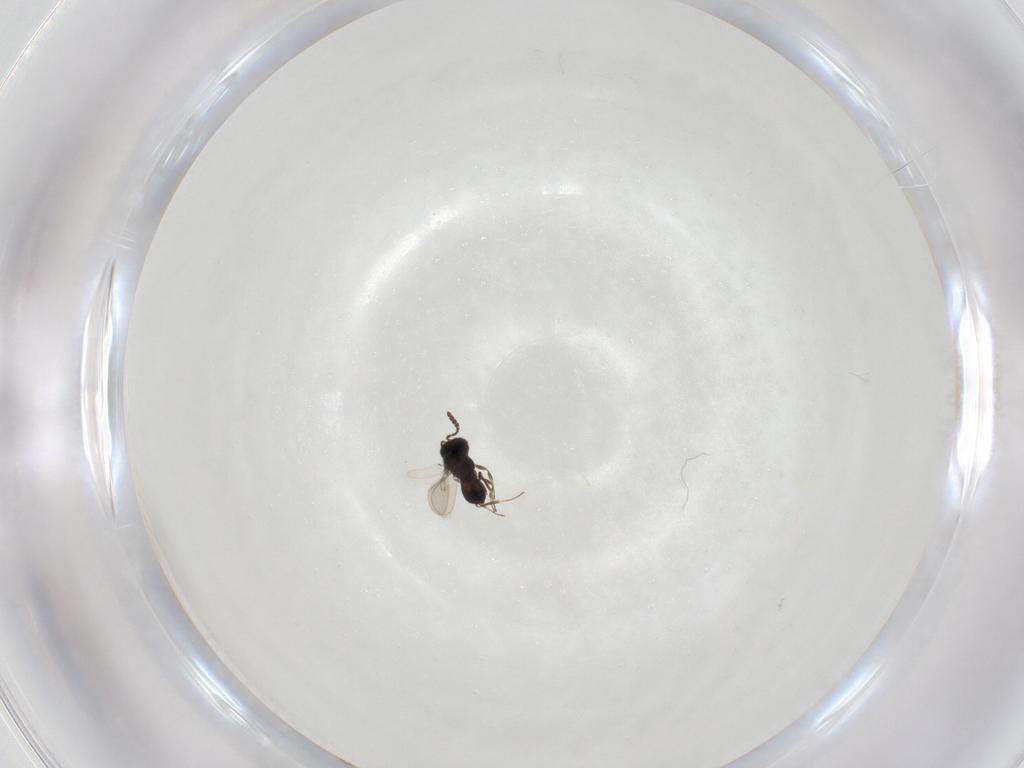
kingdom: Animalia
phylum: Arthropoda
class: Insecta
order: Hymenoptera
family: Scelionidae
